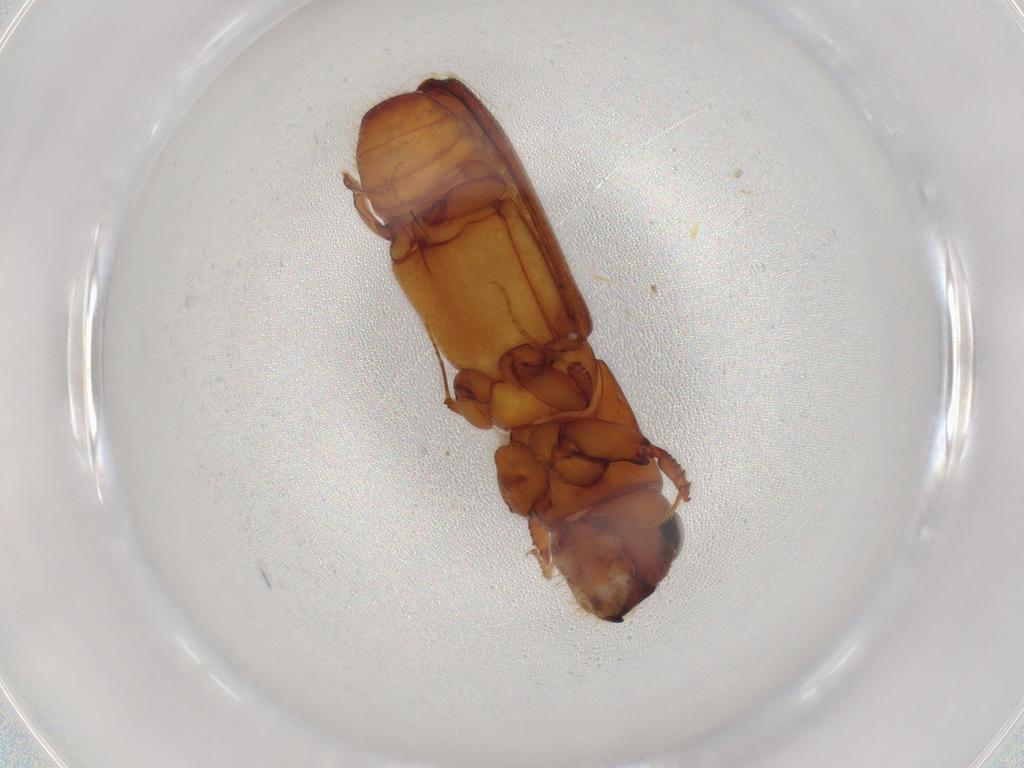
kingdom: Animalia
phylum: Arthropoda
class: Insecta
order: Coleoptera
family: Curculionidae
